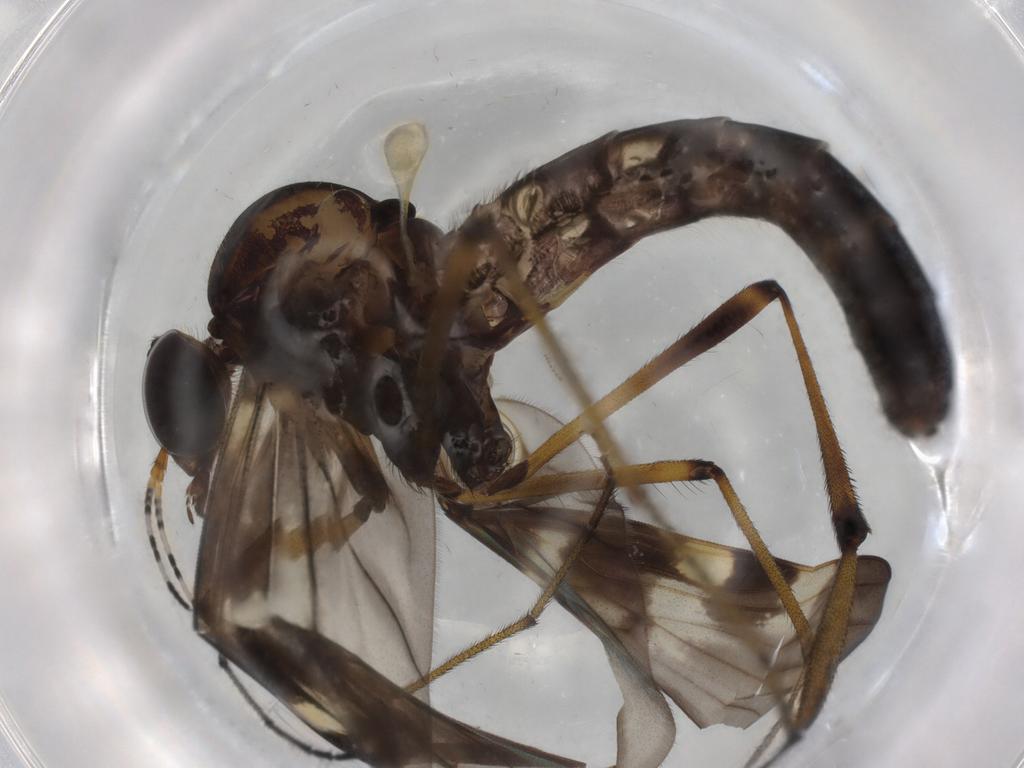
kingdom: Animalia
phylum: Arthropoda
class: Insecta
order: Diptera
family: Phoridae
